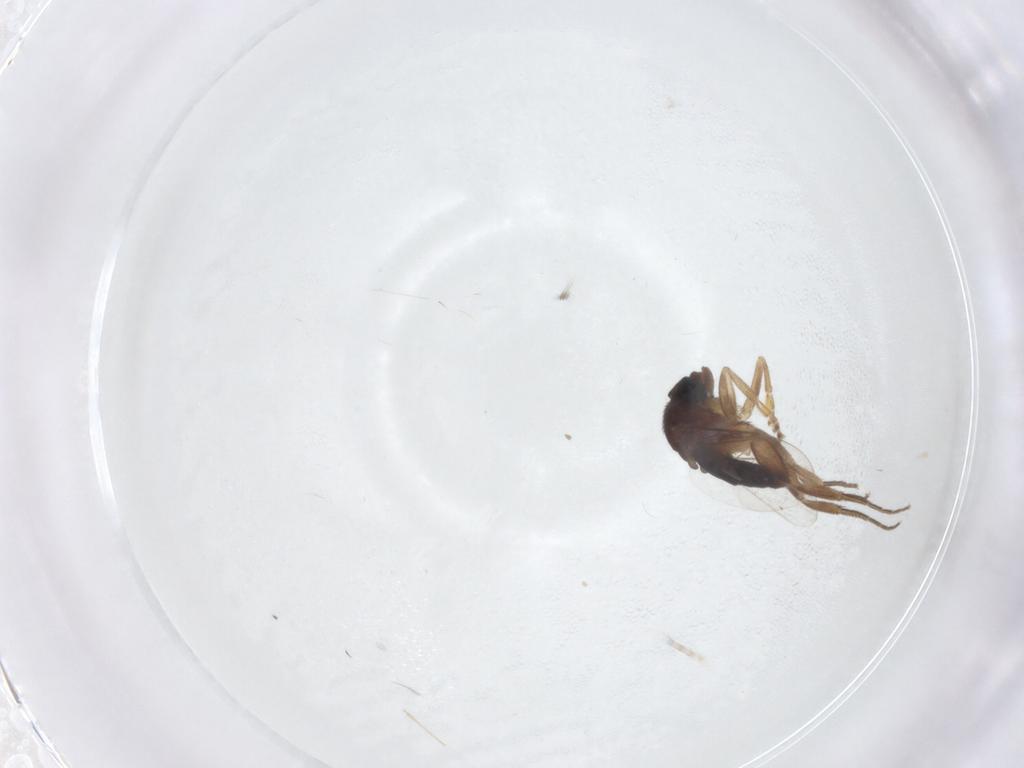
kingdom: Animalia
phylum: Arthropoda
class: Insecta
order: Diptera
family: Phoridae
